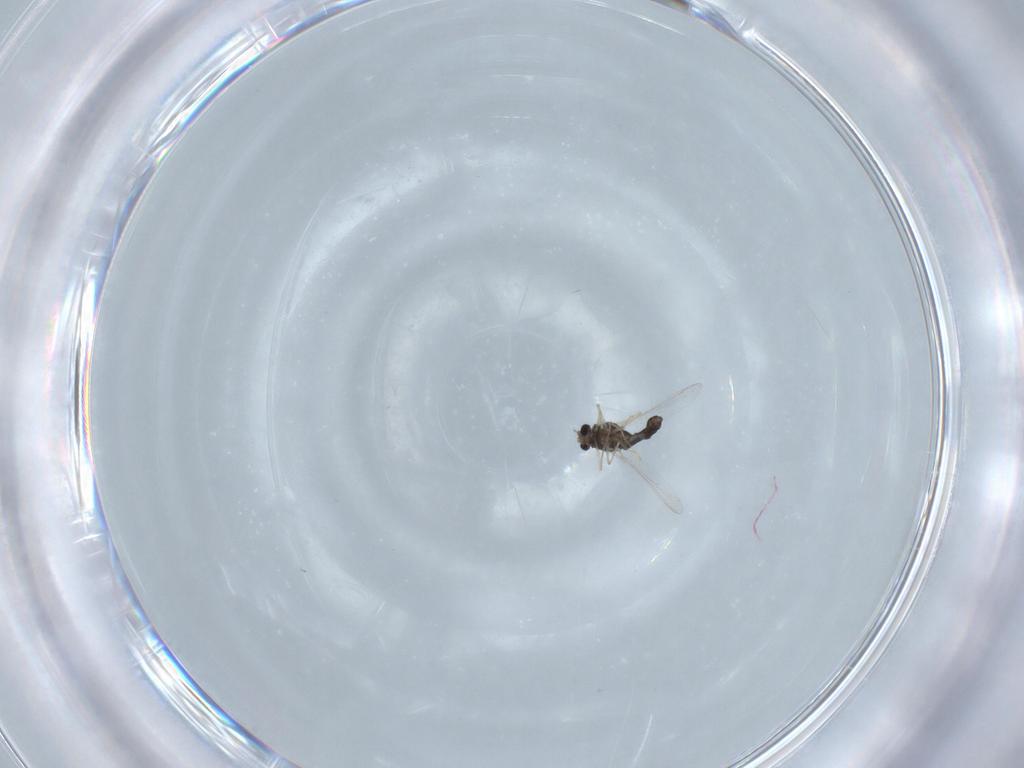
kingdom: Animalia
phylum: Arthropoda
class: Insecta
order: Diptera
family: Chironomidae
